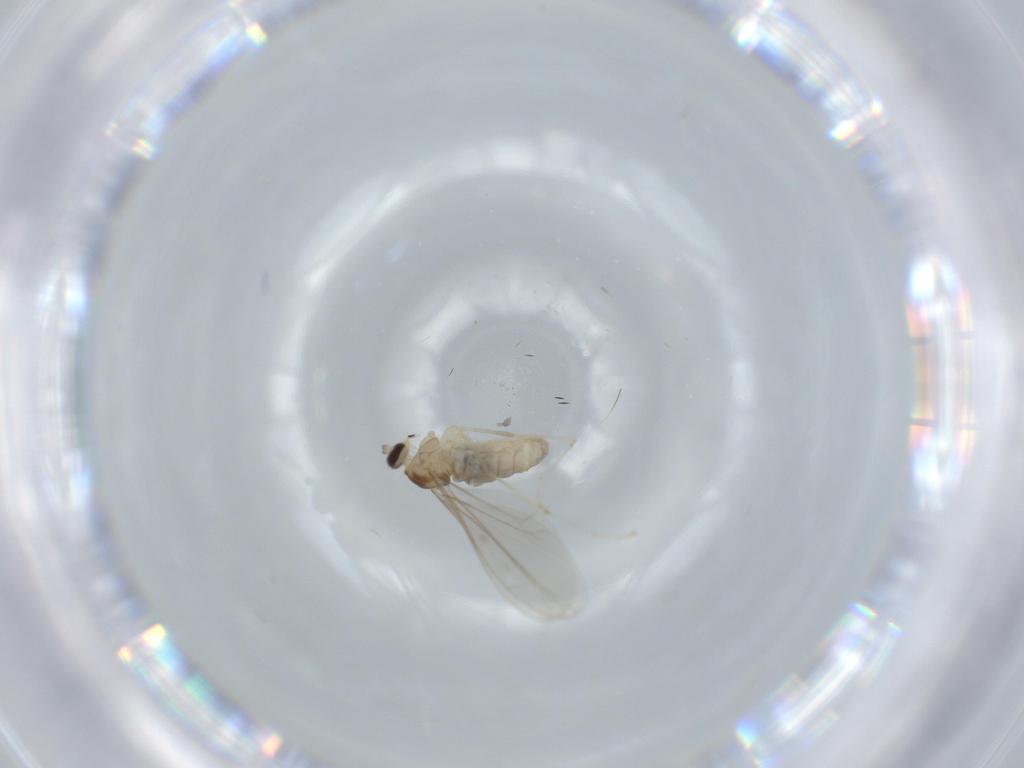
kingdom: Animalia
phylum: Arthropoda
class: Insecta
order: Diptera
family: Cecidomyiidae
